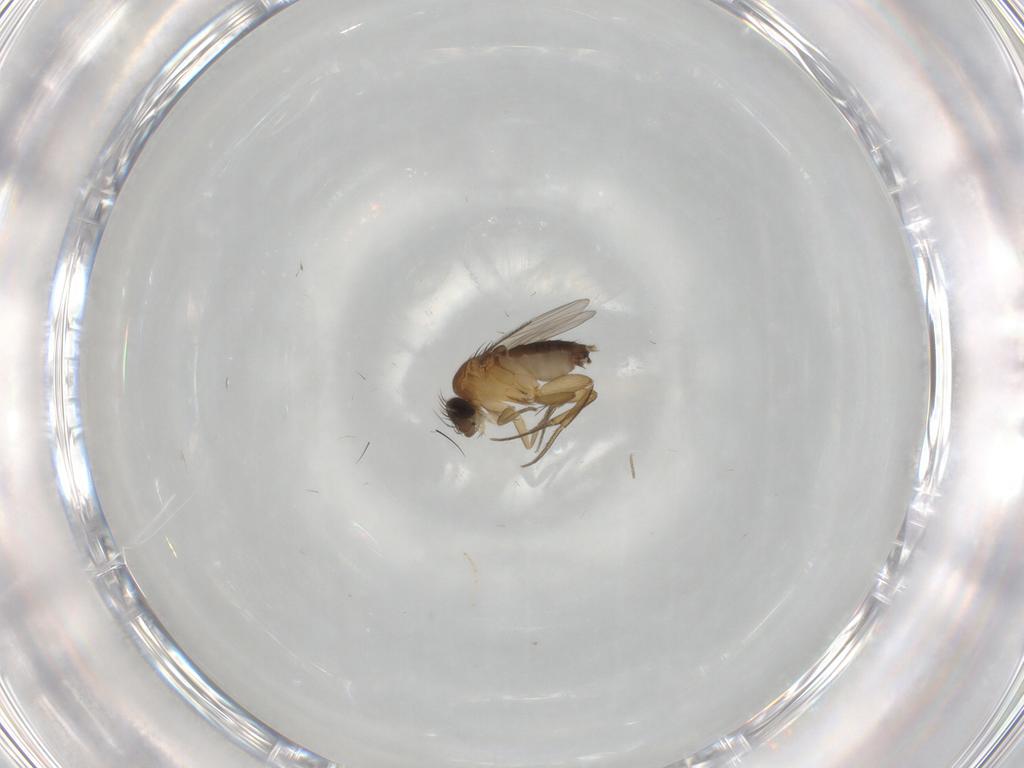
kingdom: Animalia
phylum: Arthropoda
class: Insecta
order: Diptera
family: Phoridae
